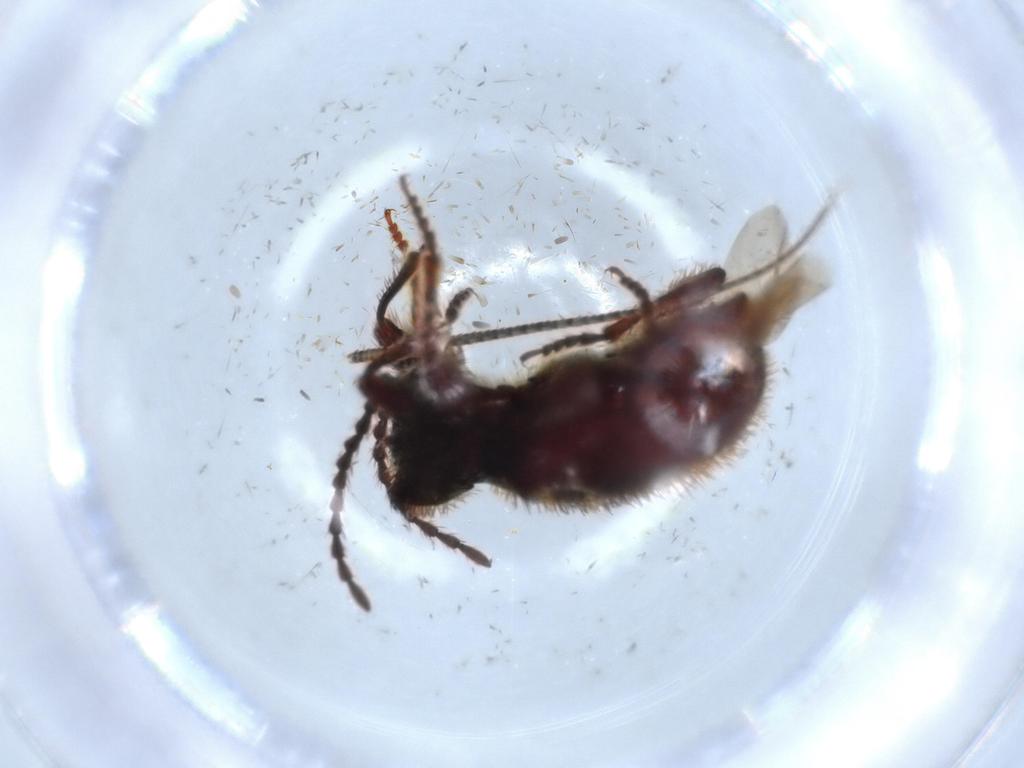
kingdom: Animalia
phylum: Arthropoda
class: Insecta
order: Coleoptera
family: Ptinidae
